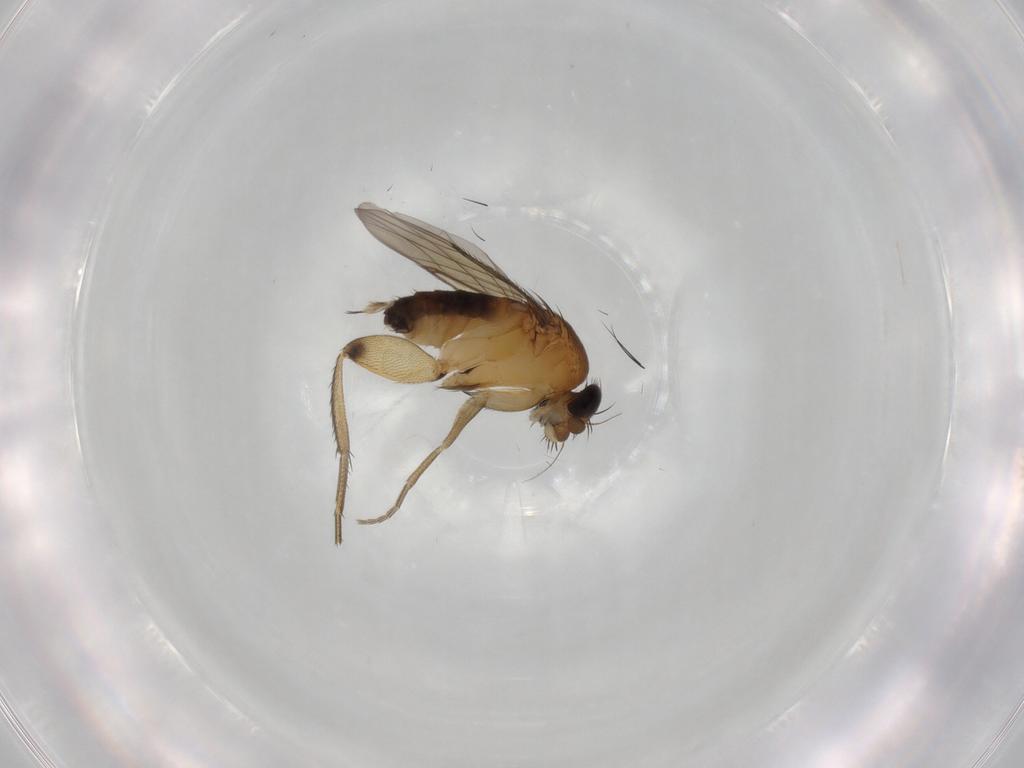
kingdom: Animalia
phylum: Arthropoda
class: Insecta
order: Diptera
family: Phoridae
